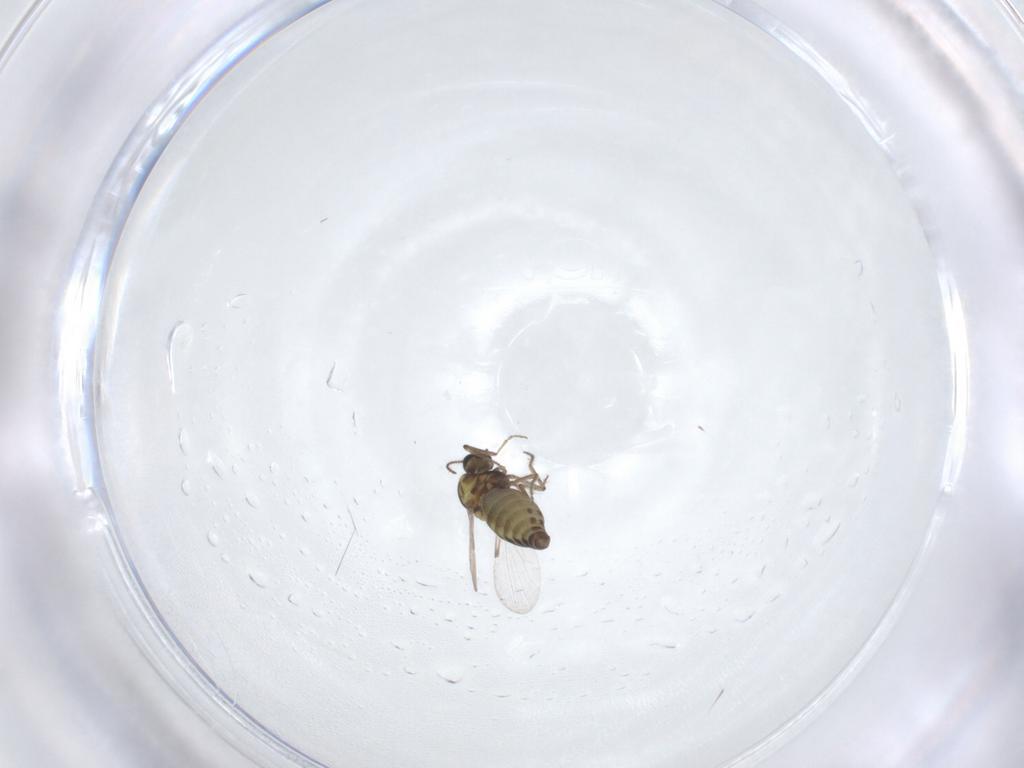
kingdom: Animalia
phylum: Arthropoda
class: Insecta
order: Diptera
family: Ceratopogonidae
